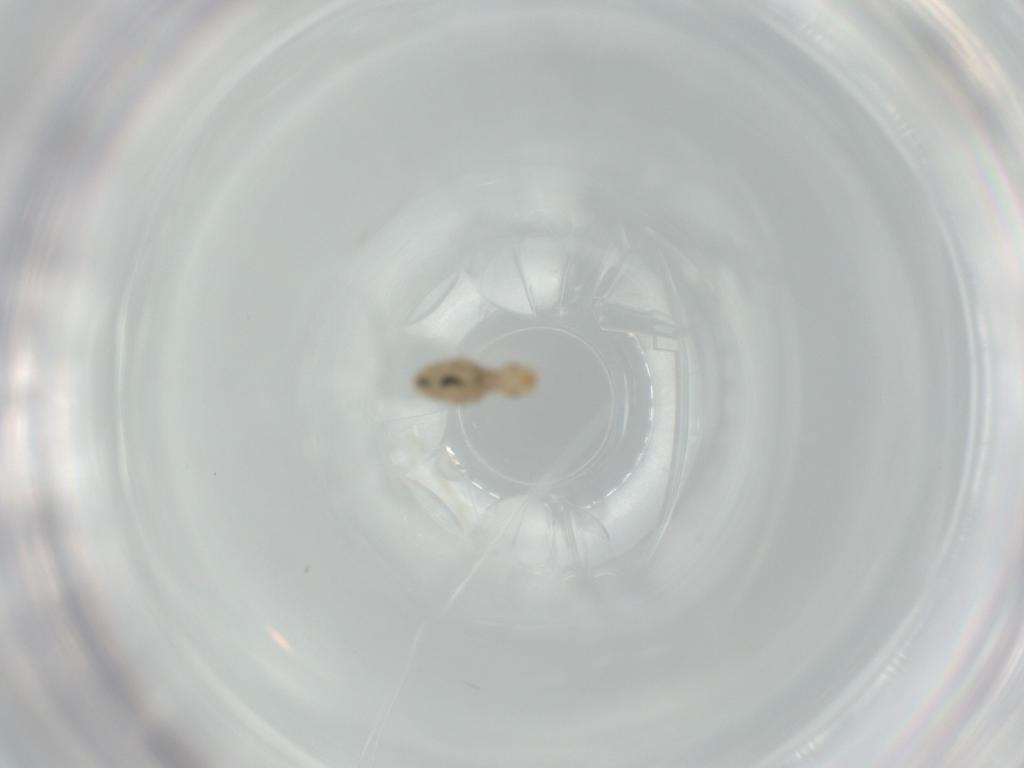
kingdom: Animalia
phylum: Arthropoda
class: Insecta
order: Psocodea
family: Liposcelididae
